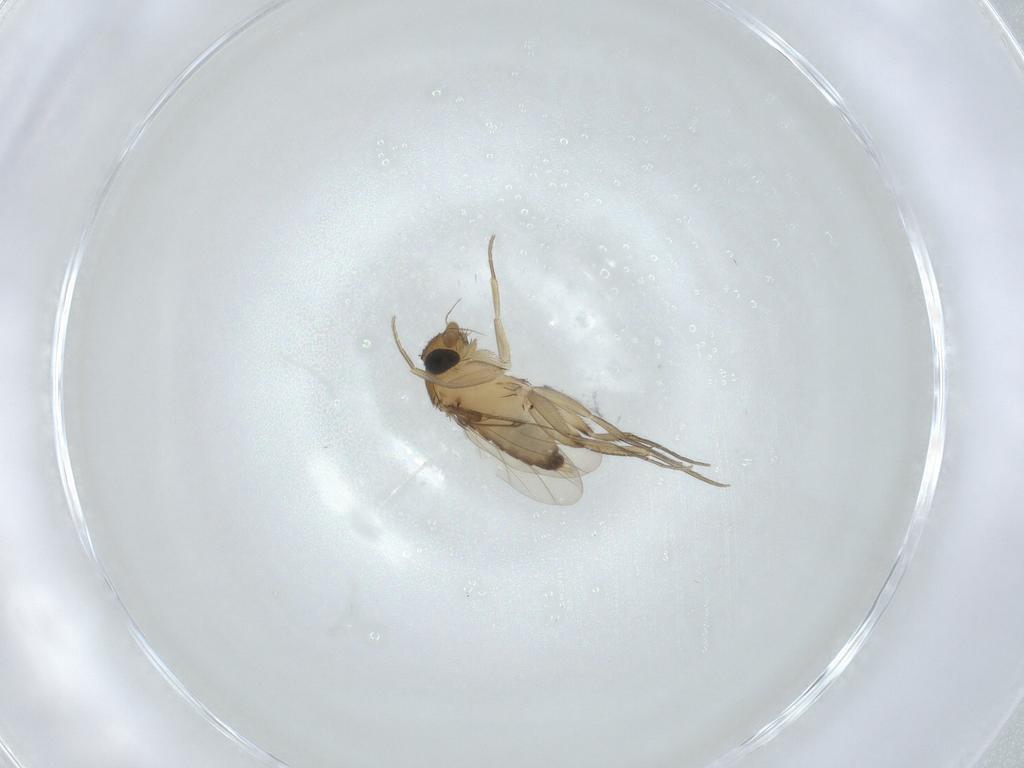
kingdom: Animalia
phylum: Arthropoda
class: Insecta
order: Diptera
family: Phoridae
